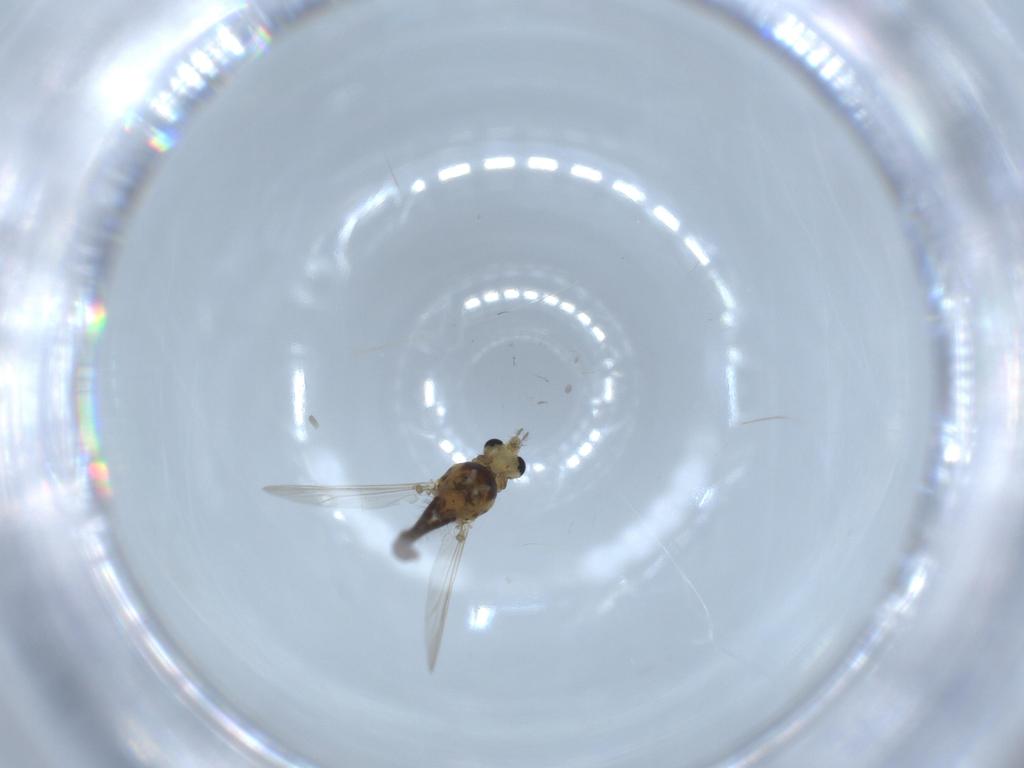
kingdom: Animalia
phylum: Arthropoda
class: Insecta
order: Diptera
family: Chironomidae
